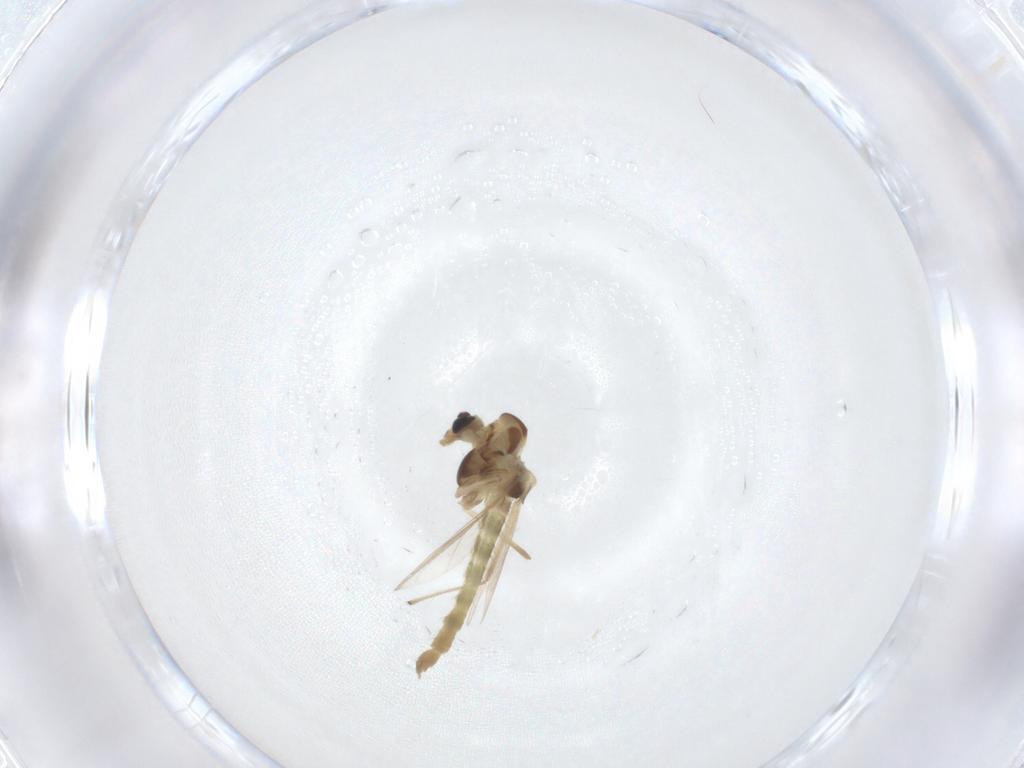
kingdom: Animalia
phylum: Arthropoda
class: Insecta
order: Diptera
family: Chironomidae
